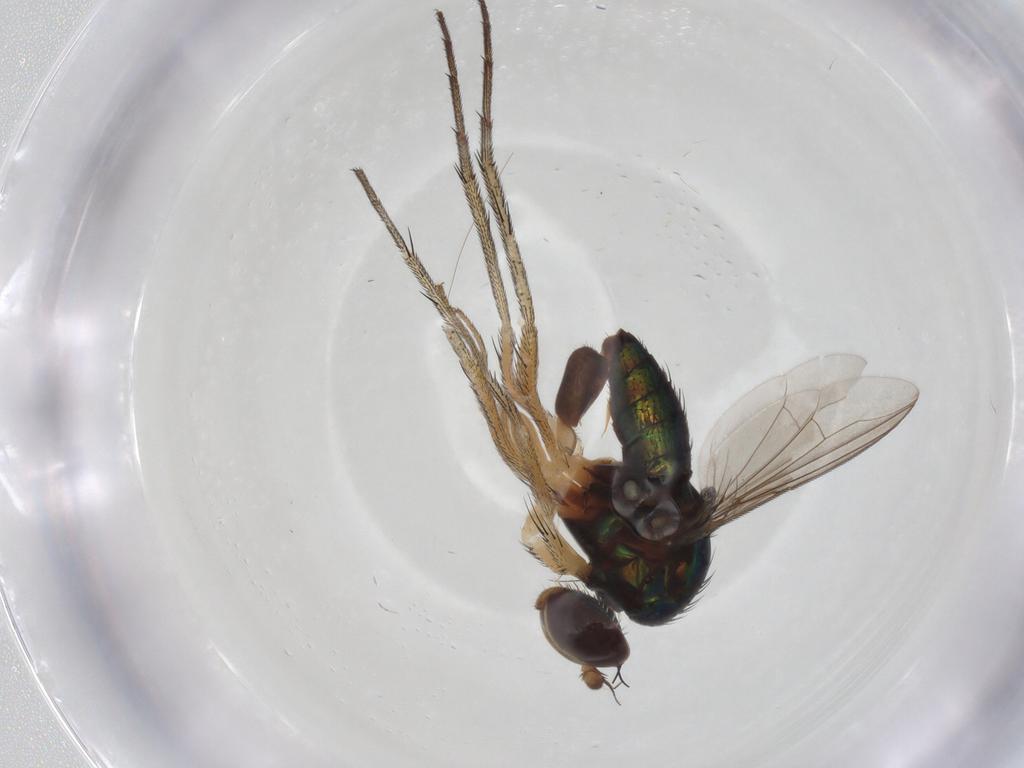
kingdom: Animalia
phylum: Arthropoda
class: Insecta
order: Diptera
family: Dolichopodidae
